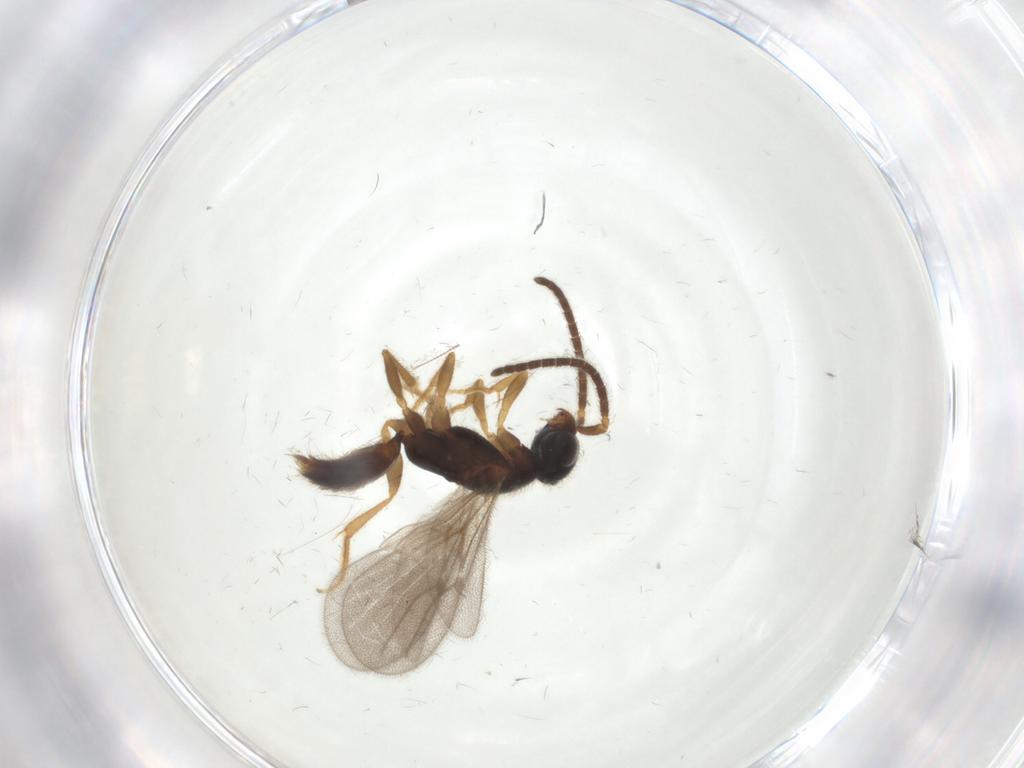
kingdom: Animalia
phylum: Arthropoda
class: Insecta
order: Hymenoptera
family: Bethylidae
